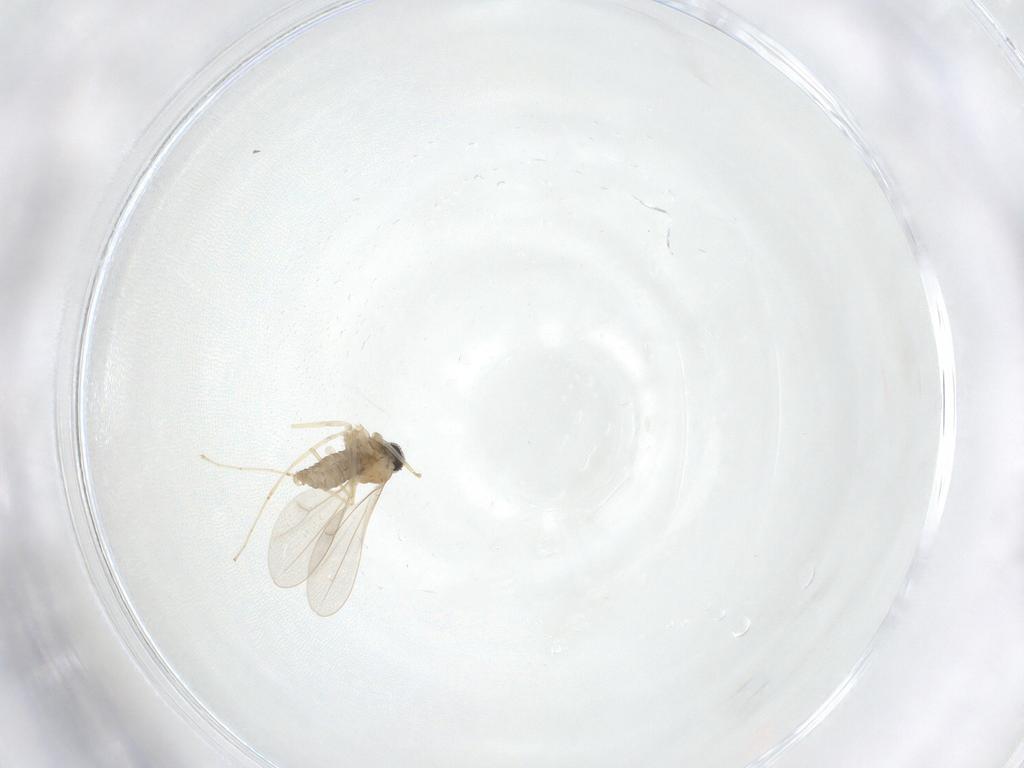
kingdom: Animalia
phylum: Arthropoda
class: Insecta
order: Diptera
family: Cecidomyiidae
